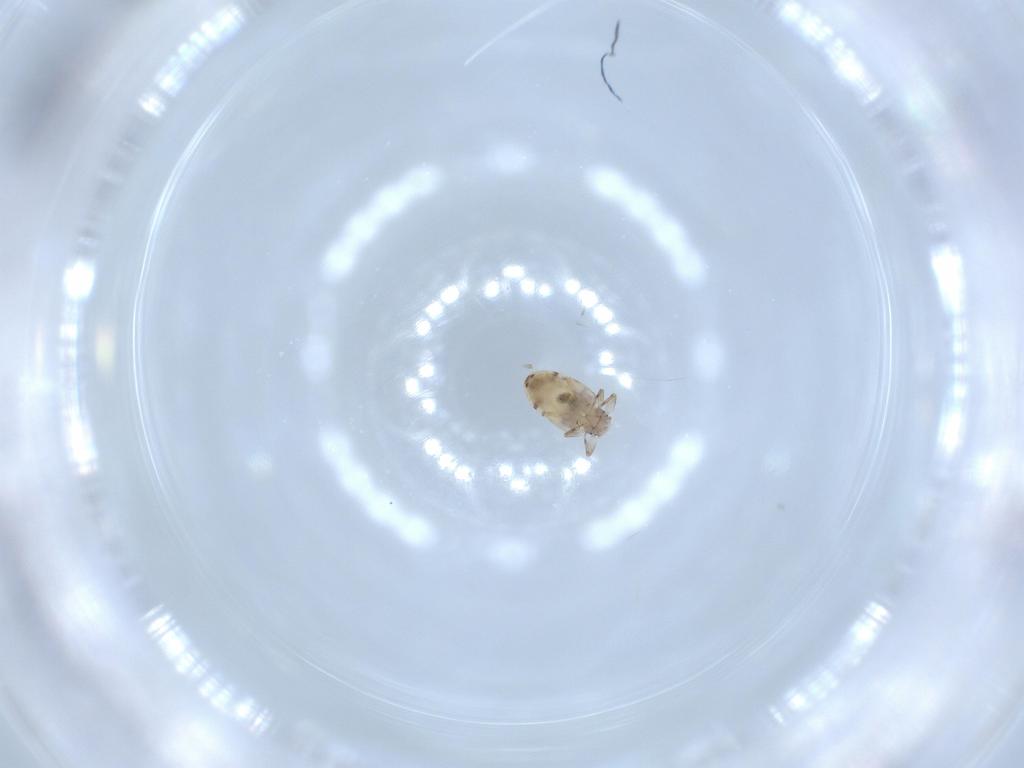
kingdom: Animalia
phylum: Arthropoda
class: Insecta
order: Psocodea
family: Liposcelididae
